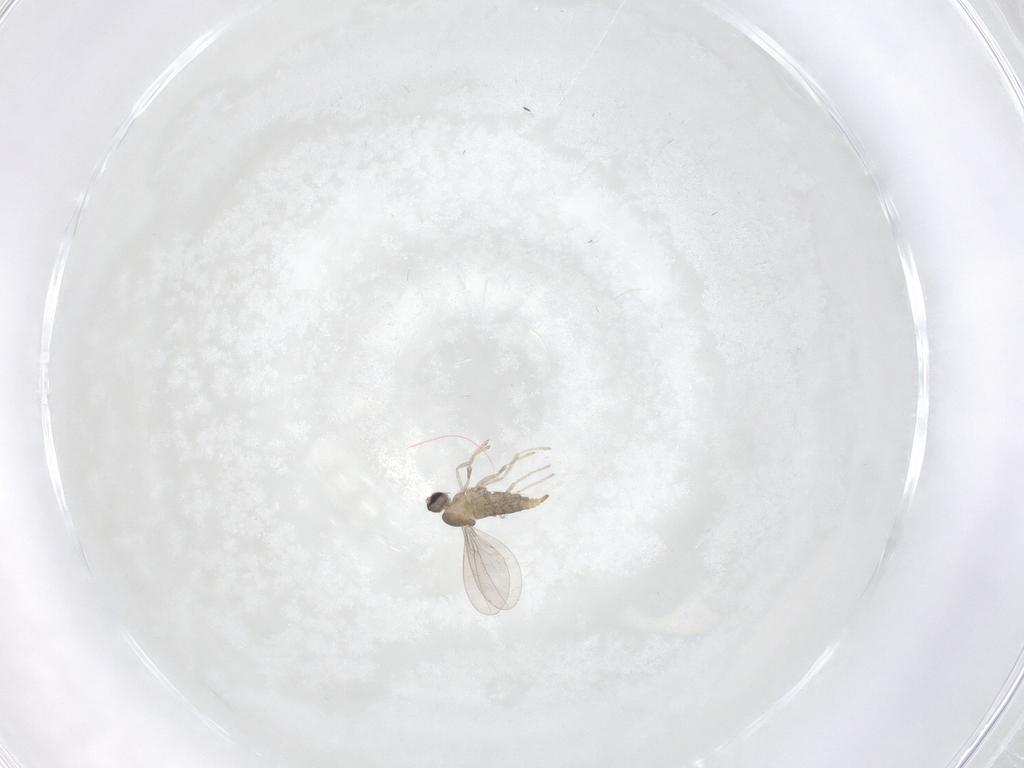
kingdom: Animalia
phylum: Arthropoda
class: Insecta
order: Diptera
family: Cecidomyiidae
